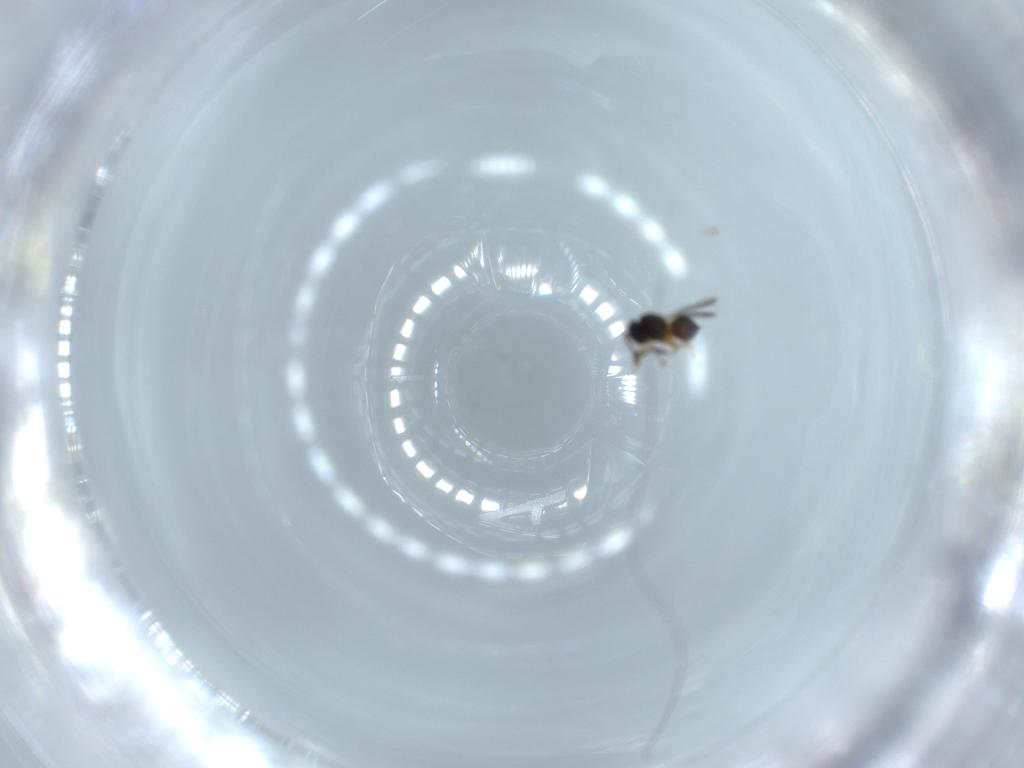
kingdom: Animalia
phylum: Arthropoda
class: Insecta
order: Hymenoptera
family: Scelionidae
